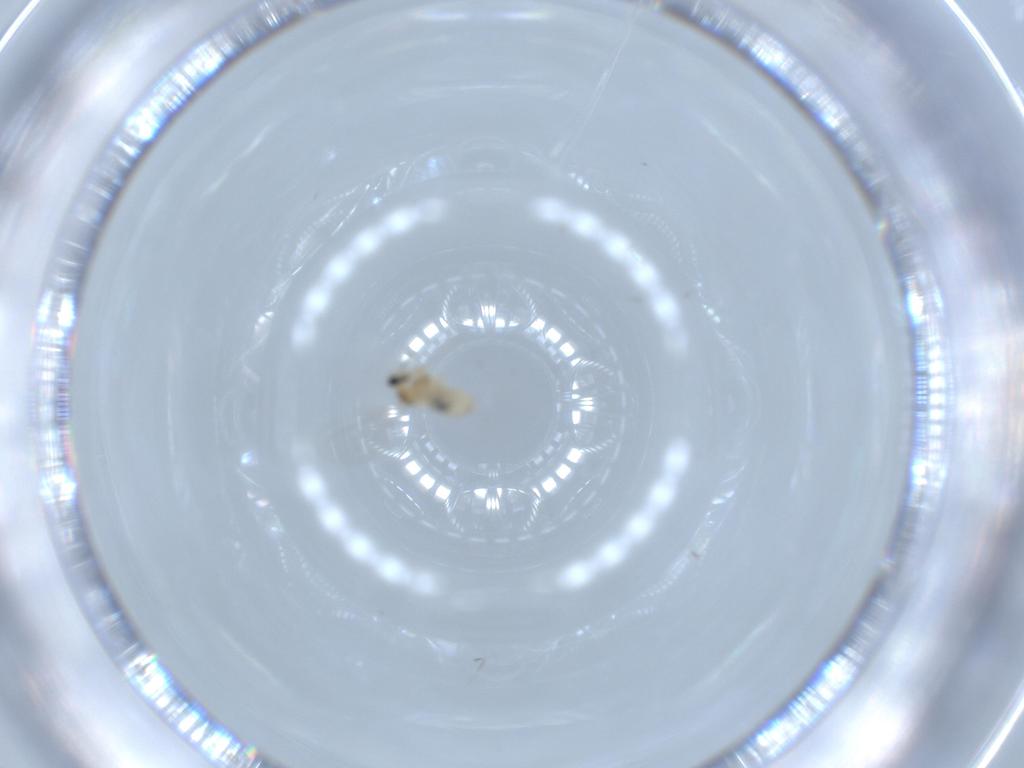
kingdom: Animalia
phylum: Arthropoda
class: Insecta
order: Diptera
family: Cecidomyiidae
